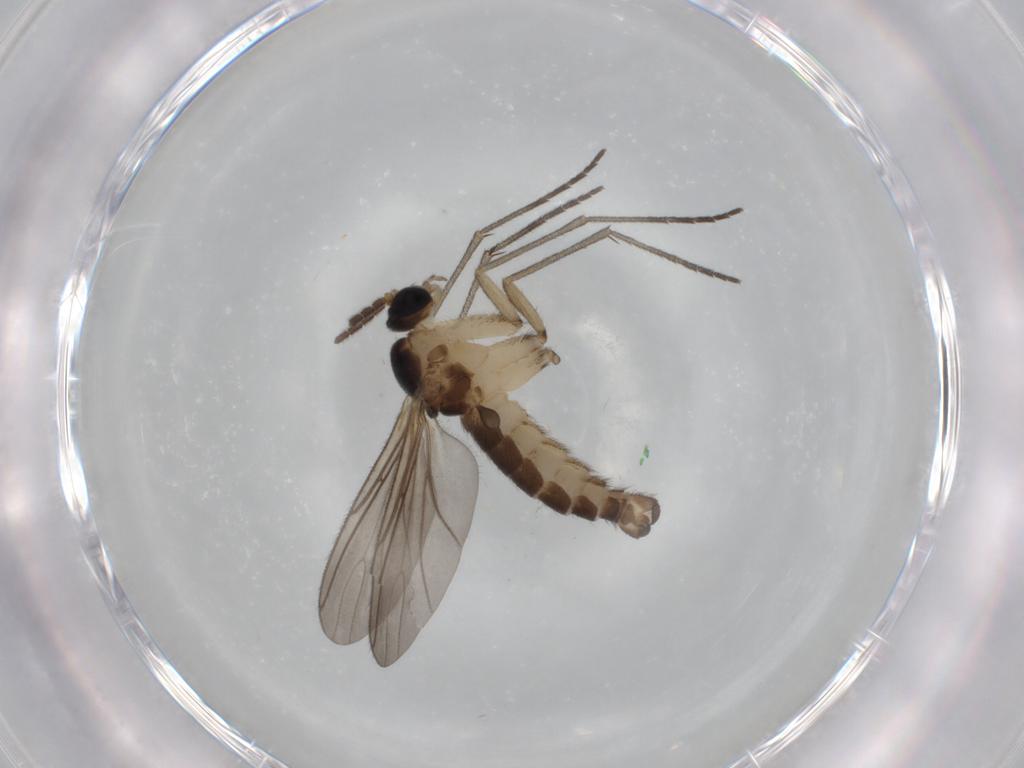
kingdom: Animalia
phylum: Arthropoda
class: Insecta
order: Diptera
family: Sciaridae
